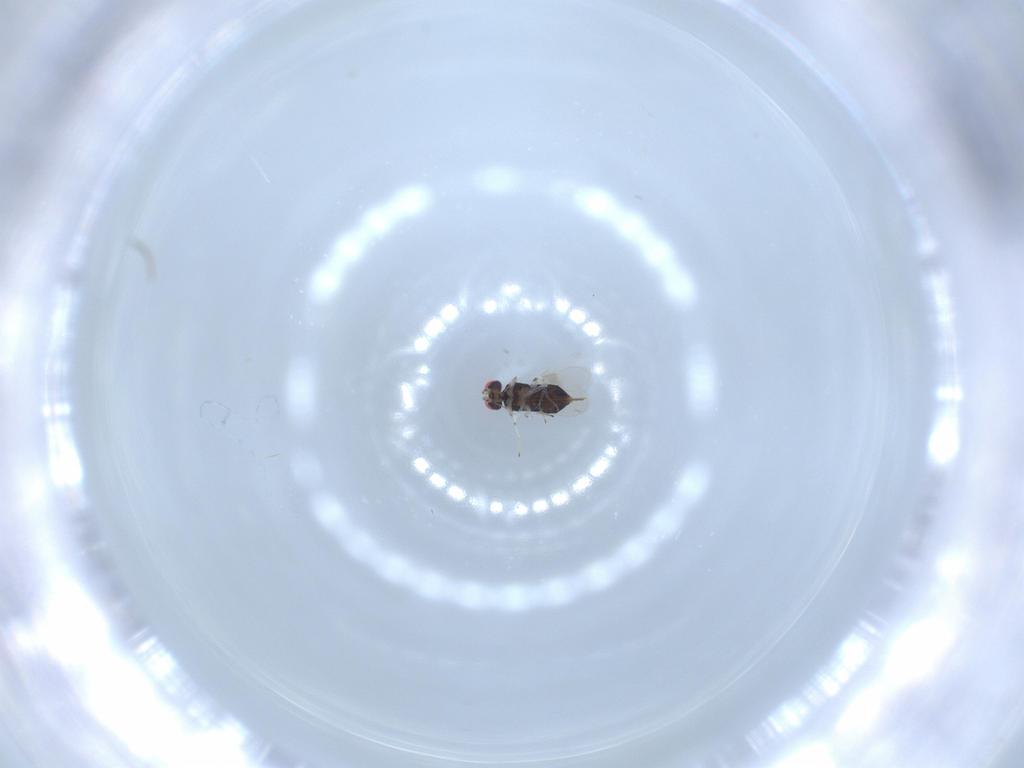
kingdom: Animalia
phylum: Arthropoda
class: Insecta
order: Hymenoptera
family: Azotidae
